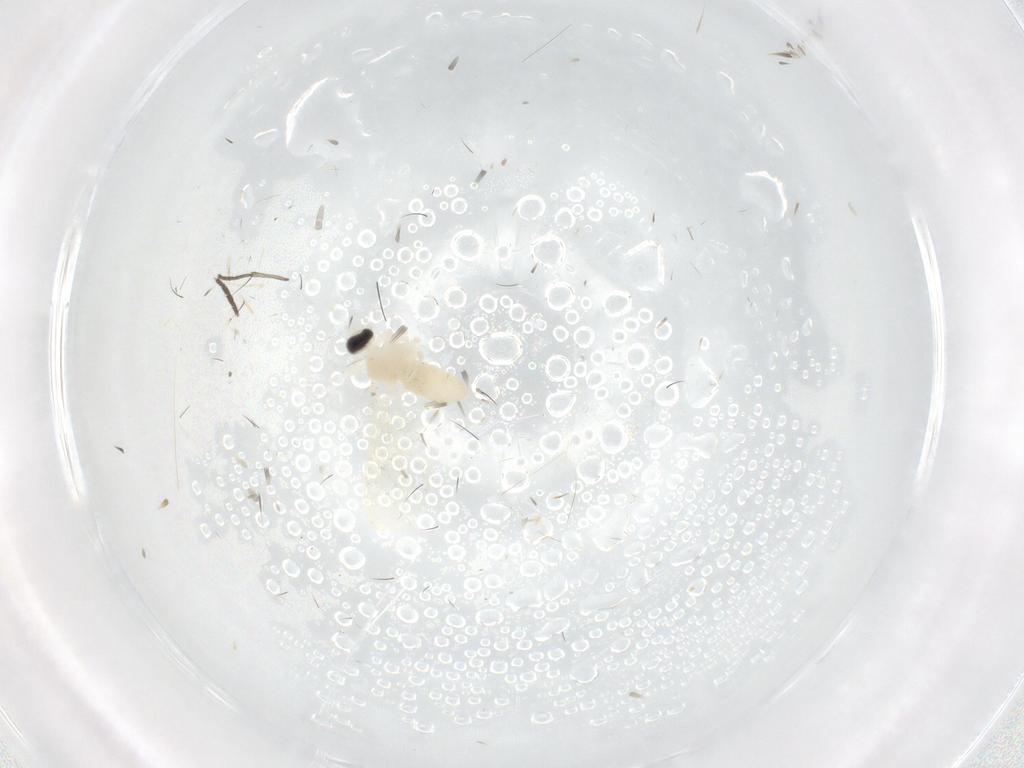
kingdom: Animalia
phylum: Arthropoda
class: Insecta
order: Diptera
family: Cecidomyiidae
